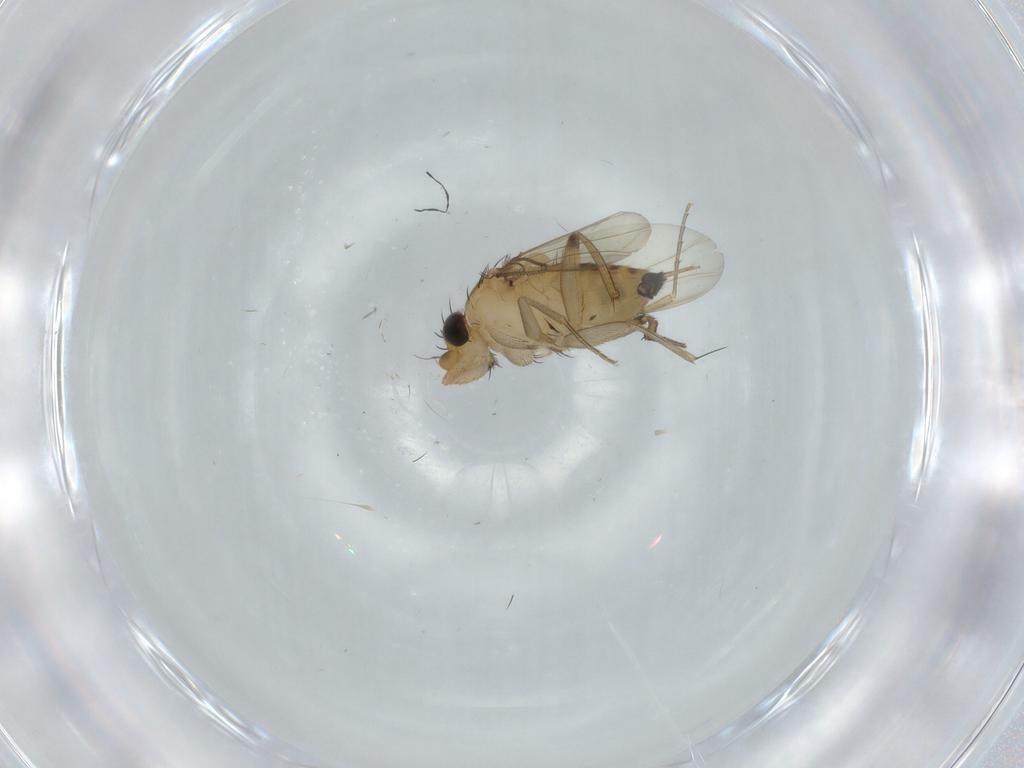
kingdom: Animalia
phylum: Arthropoda
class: Insecta
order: Diptera
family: Phoridae
